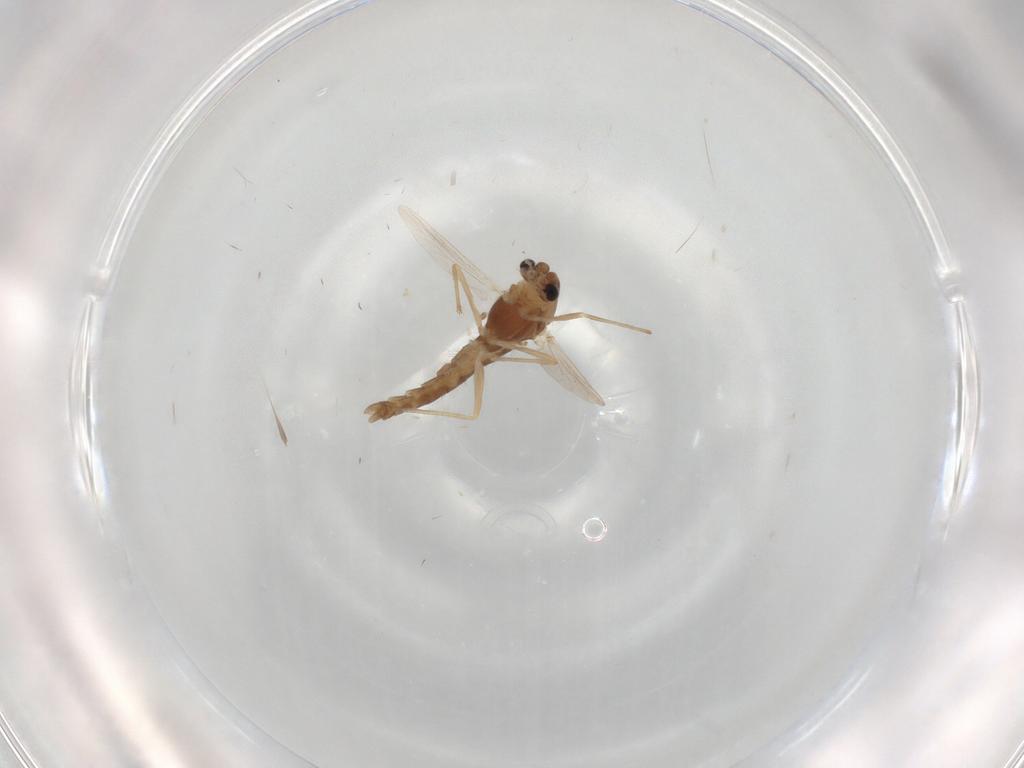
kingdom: Animalia
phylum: Arthropoda
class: Insecta
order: Diptera
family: Chironomidae
